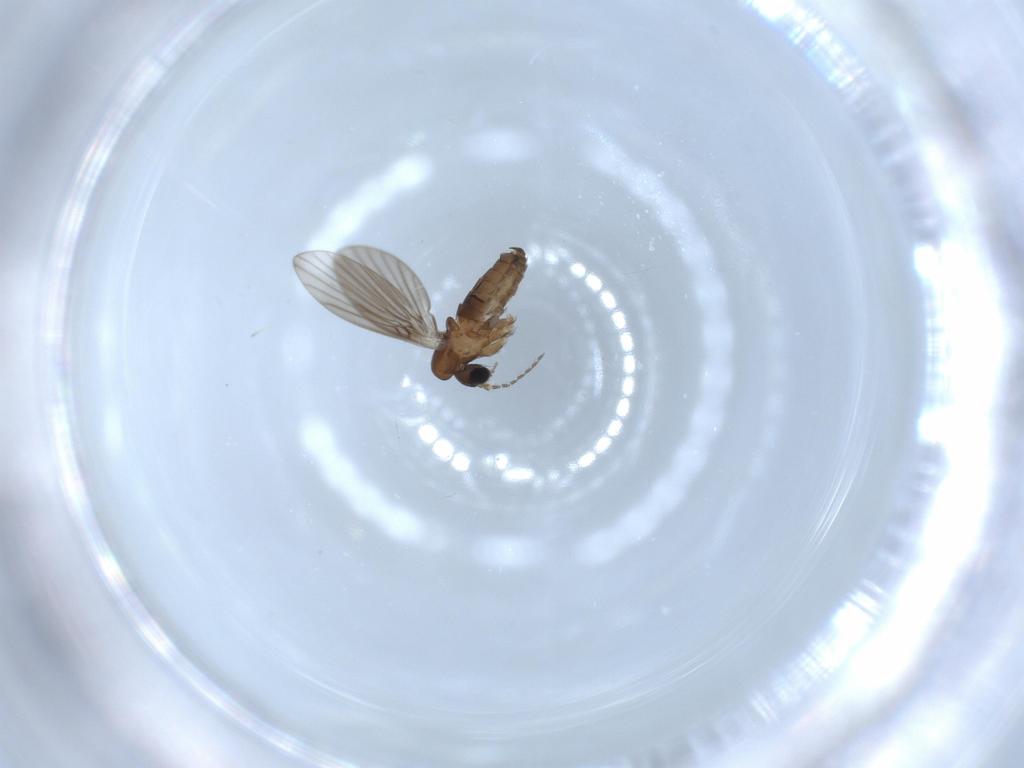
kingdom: Animalia
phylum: Arthropoda
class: Insecta
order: Diptera
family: Psychodidae
